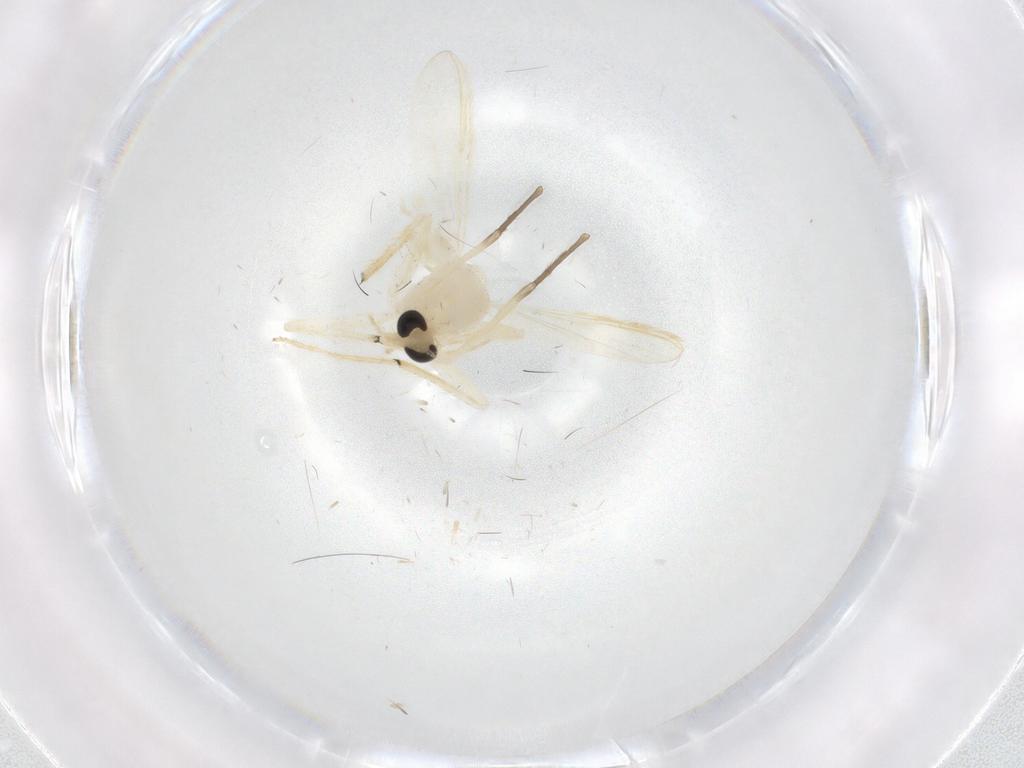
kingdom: Animalia
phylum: Arthropoda
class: Insecta
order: Diptera
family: Chironomidae
